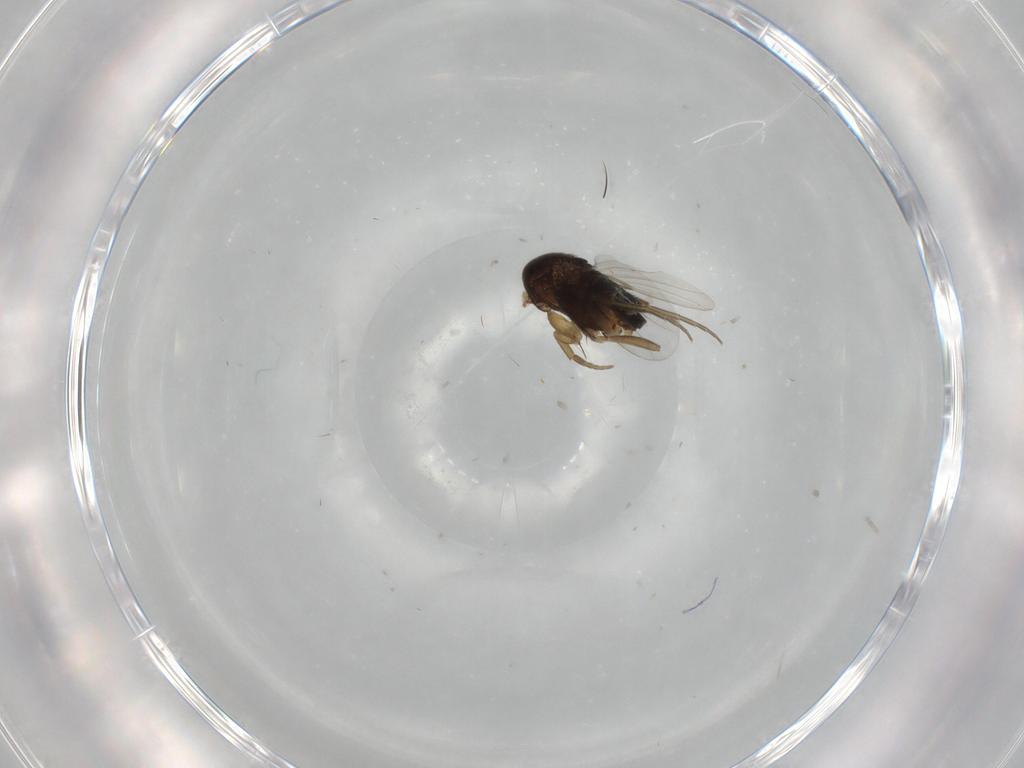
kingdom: Animalia
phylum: Arthropoda
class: Insecta
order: Diptera
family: Phoridae
